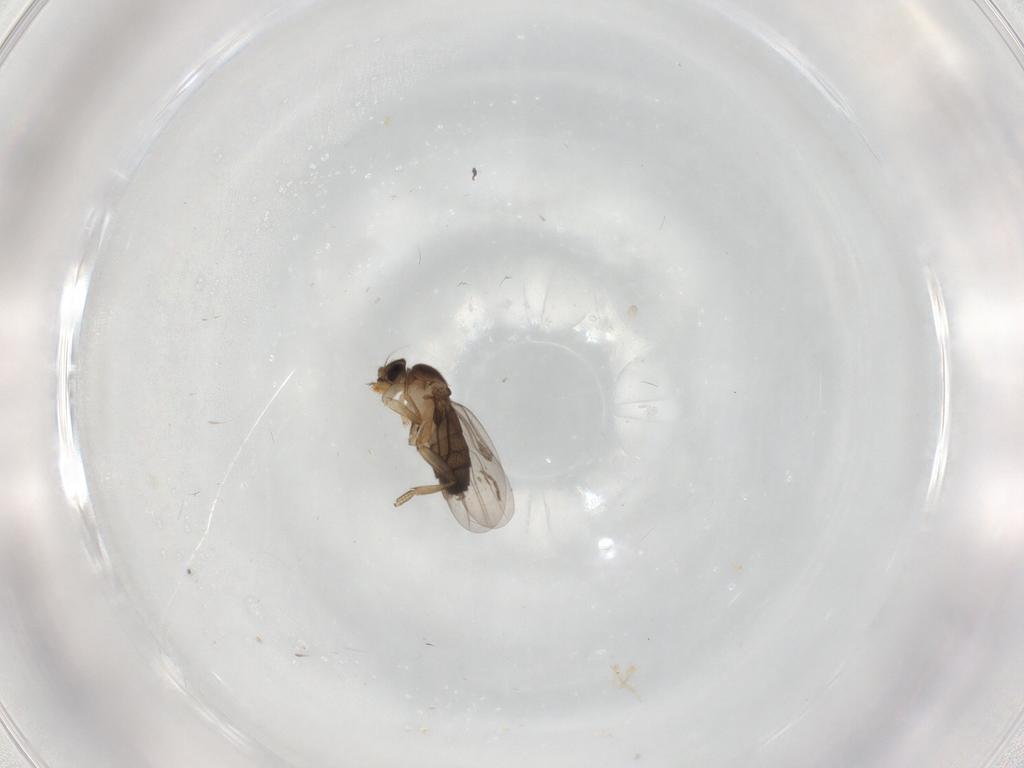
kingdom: Animalia
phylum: Arthropoda
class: Insecta
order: Diptera
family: Phoridae
